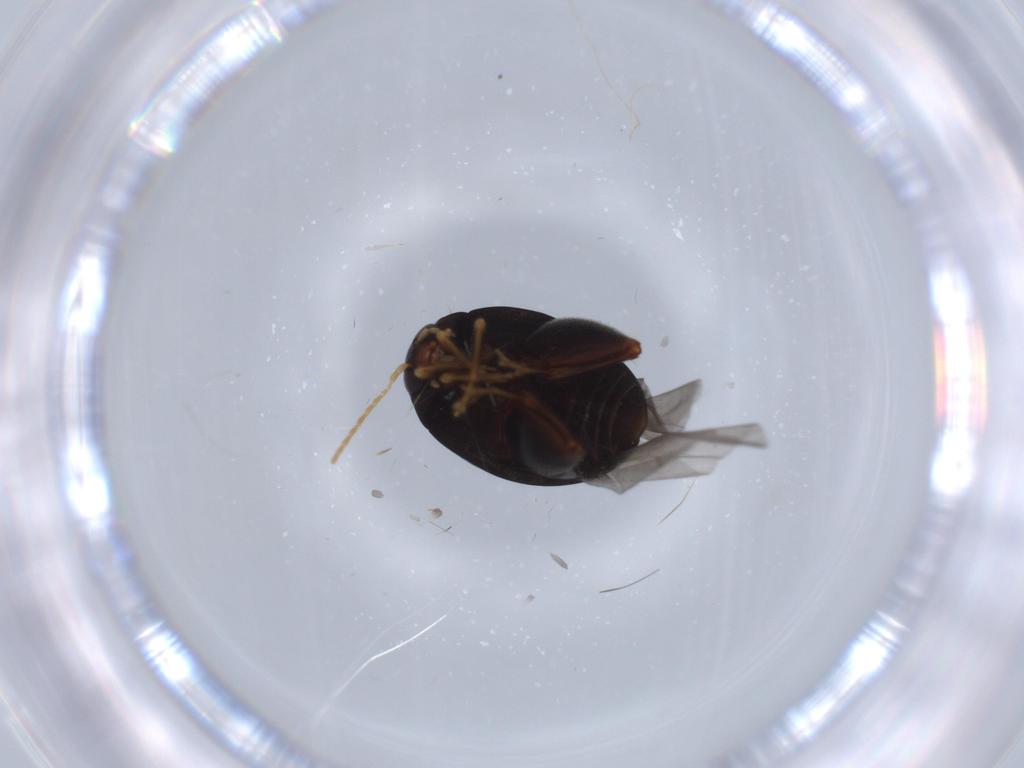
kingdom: Animalia
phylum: Arthropoda
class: Insecta
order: Coleoptera
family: Chrysomelidae
